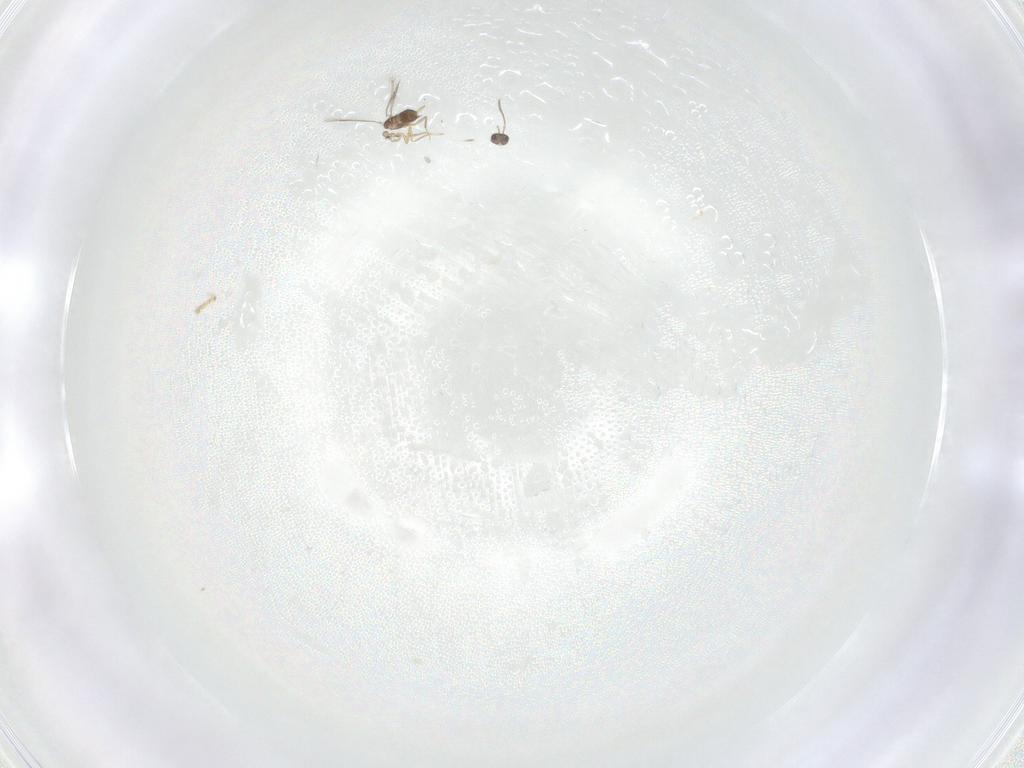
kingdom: Animalia
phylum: Arthropoda
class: Insecta
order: Hymenoptera
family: Mymaridae
